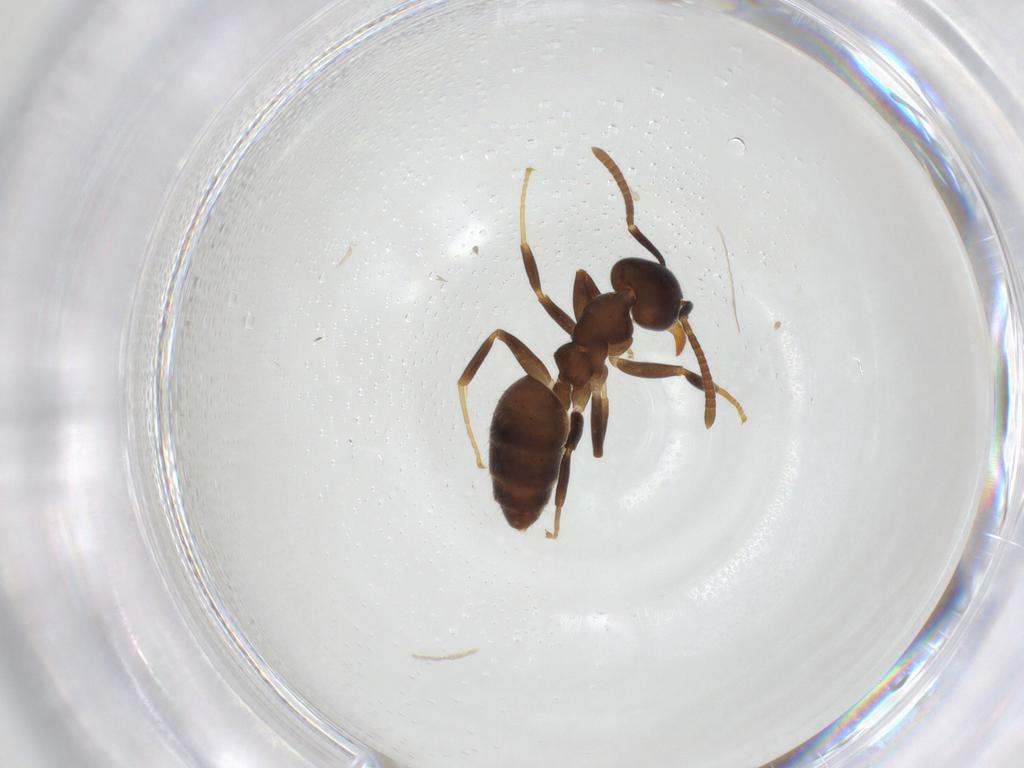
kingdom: Animalia
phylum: Arthropoda
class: Insecta
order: Hymenoptera
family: Formicidae
